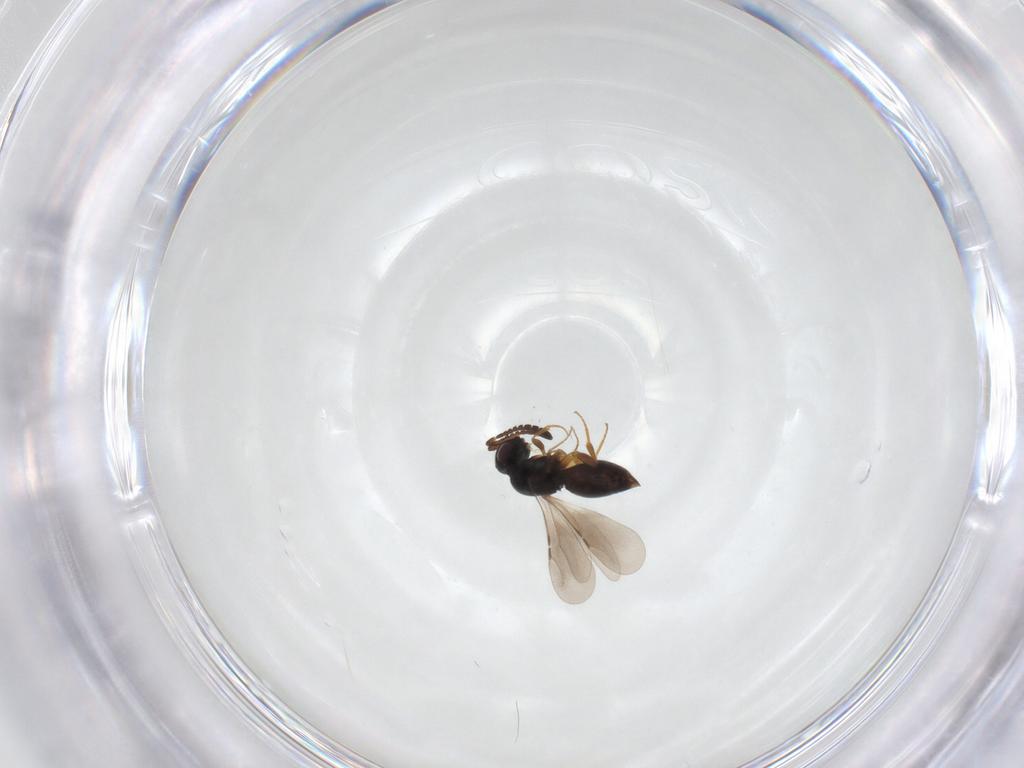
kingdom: Animalia
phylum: Arthropoda
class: Insecta
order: Hymenoptera
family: Ceraphronidae
